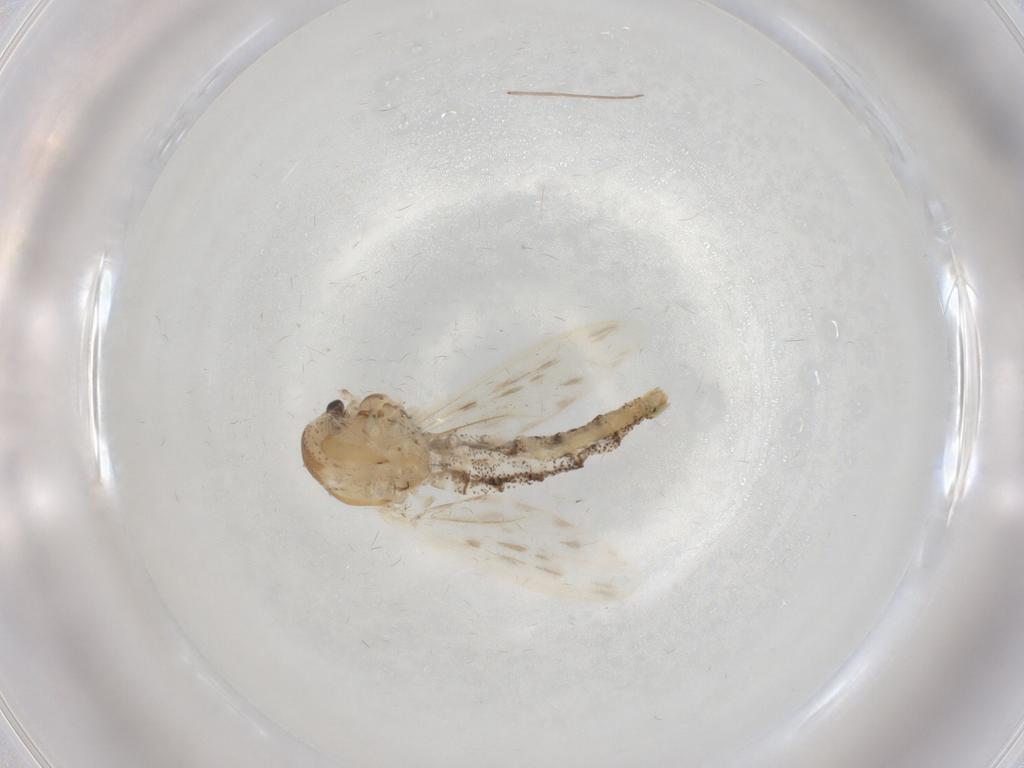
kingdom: Animalia
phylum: Arthropoda
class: Insecta
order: Diptera
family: Chaoboridae
